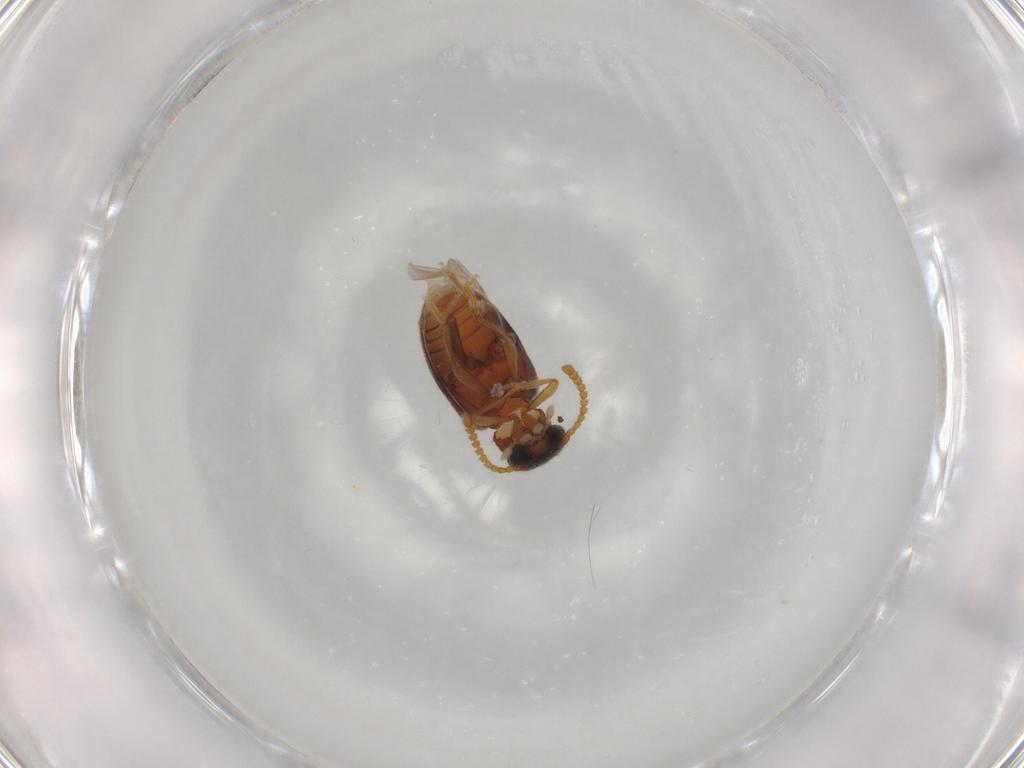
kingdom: Animalia
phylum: Arthropoda
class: Insecta
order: Coleoptera
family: Aderidae
